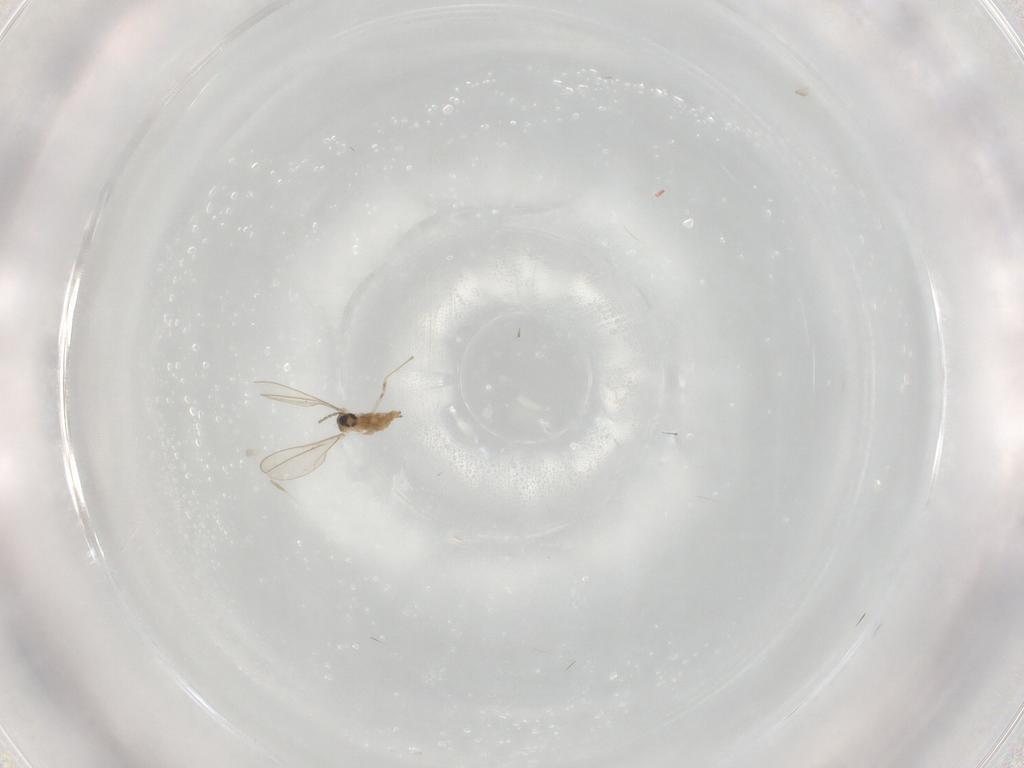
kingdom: Animalia
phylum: Arthropoda
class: Insecta
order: Diptera
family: Cecidomyiidae
